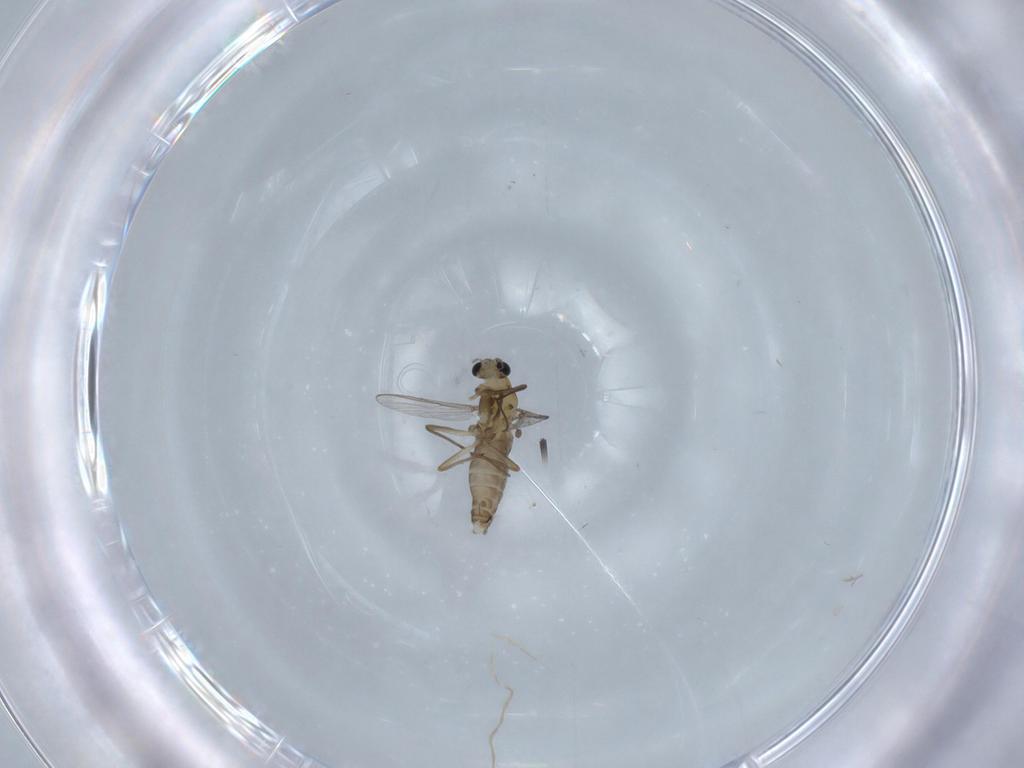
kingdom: Animalia
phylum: Arthropoda
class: Insecta
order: Diptera
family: Chironomidae
